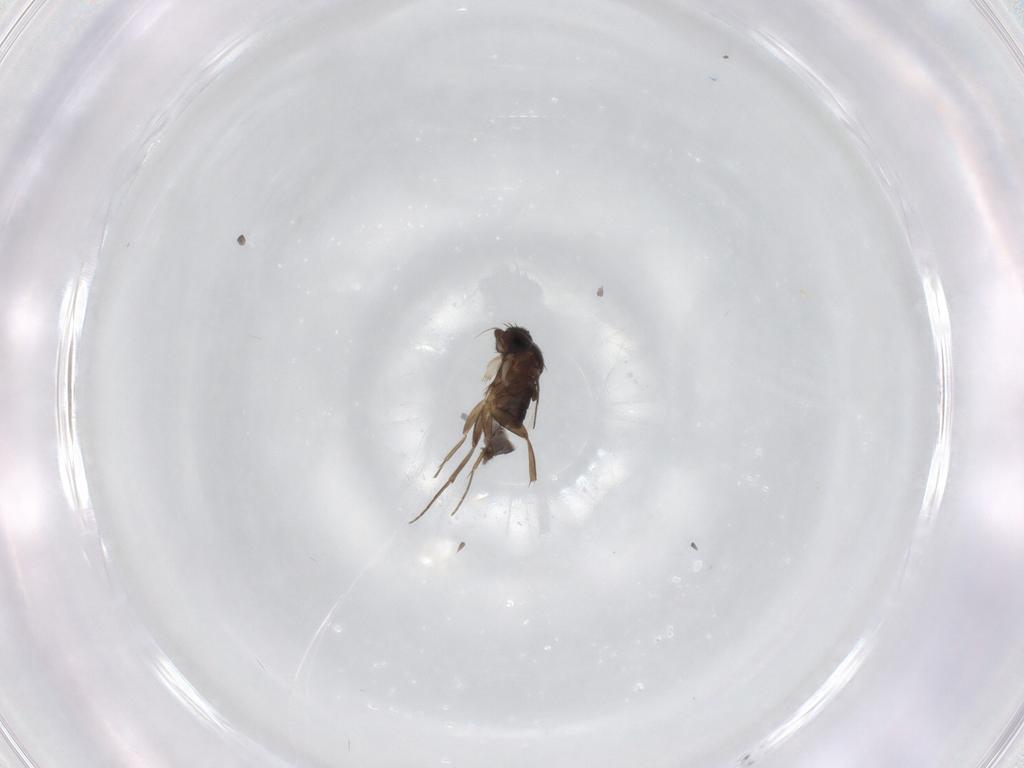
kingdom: Animalia
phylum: Arthropoda
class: Insecta
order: Diptera
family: Phoridae
